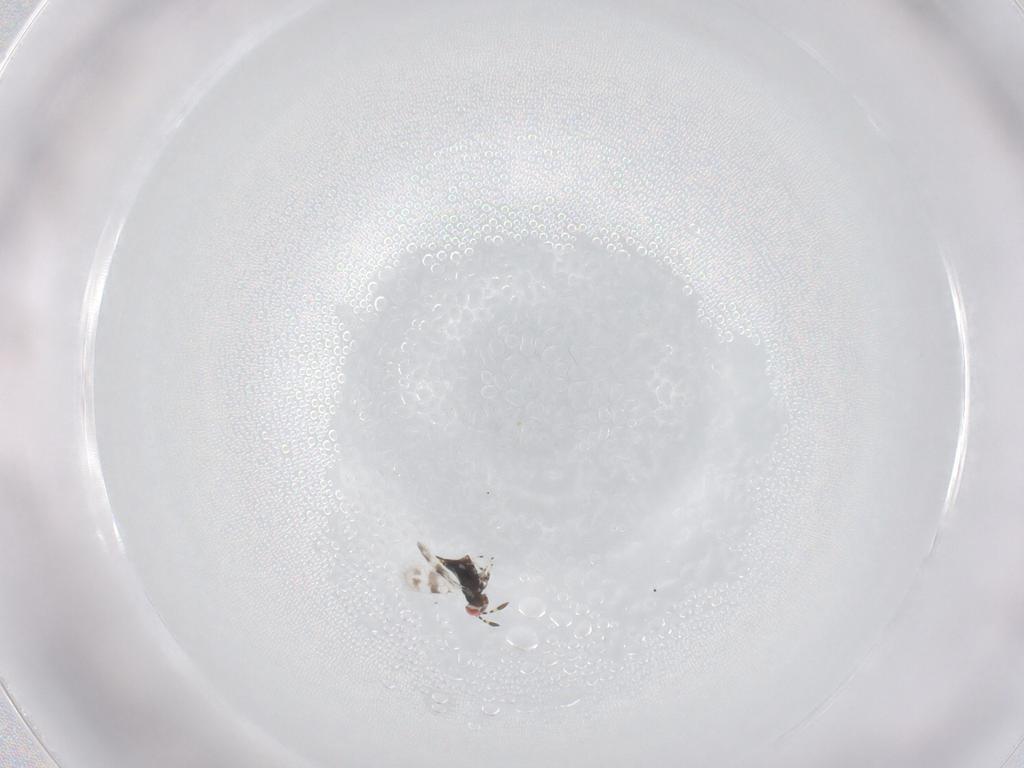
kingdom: Animalia
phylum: Arthropoda
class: Insecta
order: Hymenoptera
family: Azotidae
